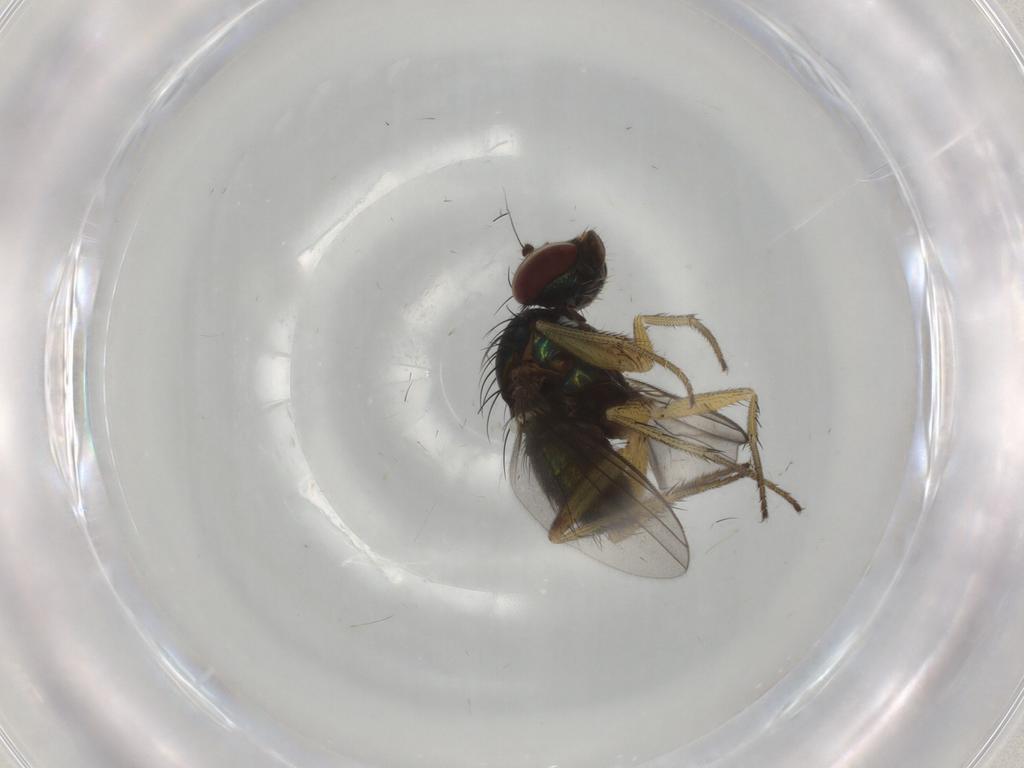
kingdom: Animalia
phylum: Arthropoda
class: Insecta
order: Diptera
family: Dolichopodidae
